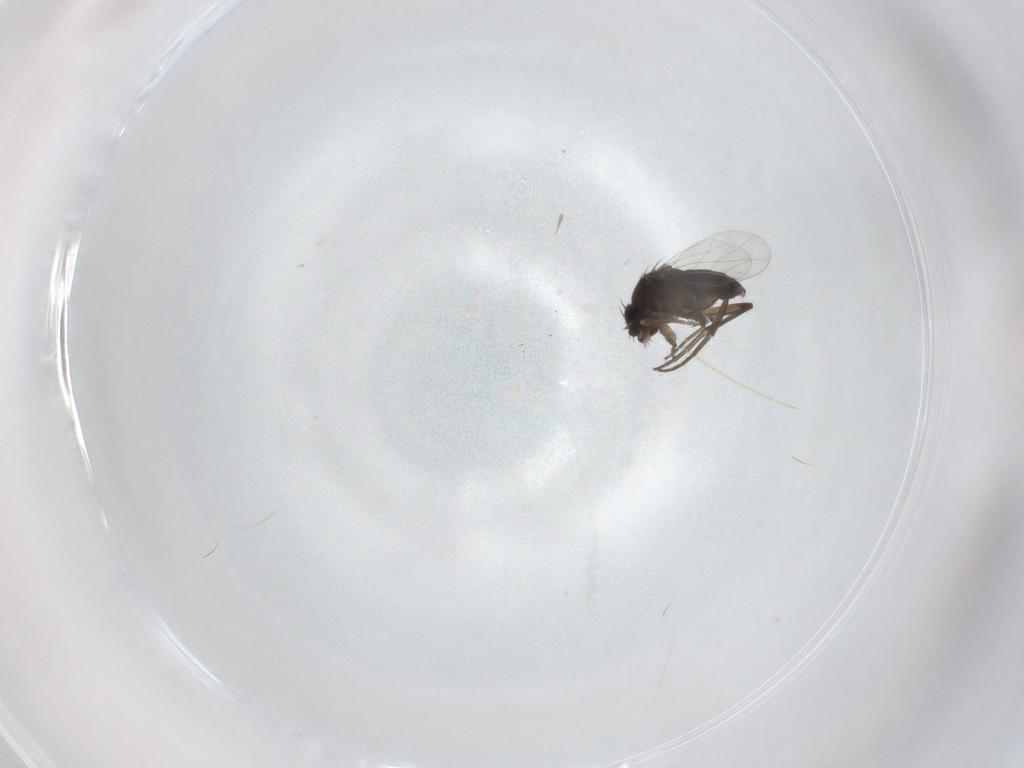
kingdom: Animalia
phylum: Arthropoda
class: Insecta
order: Diptera
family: Phoridae
